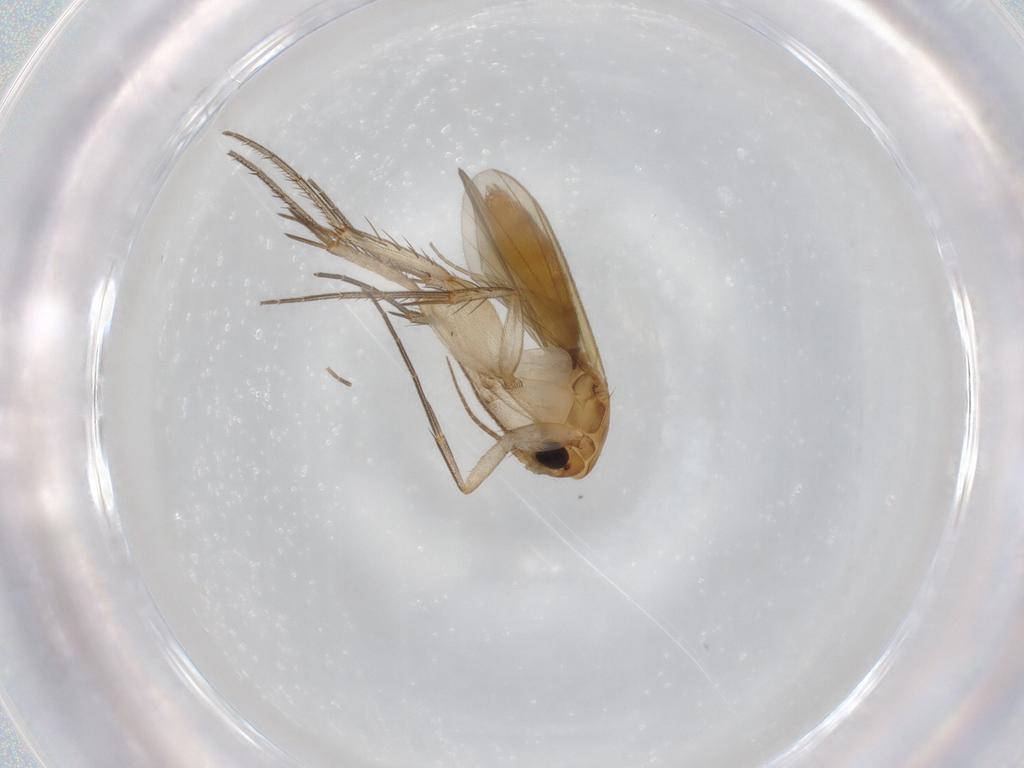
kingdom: Animalia
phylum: Arthropoda
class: Insecta
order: Diptera
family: Mycetophilidae
